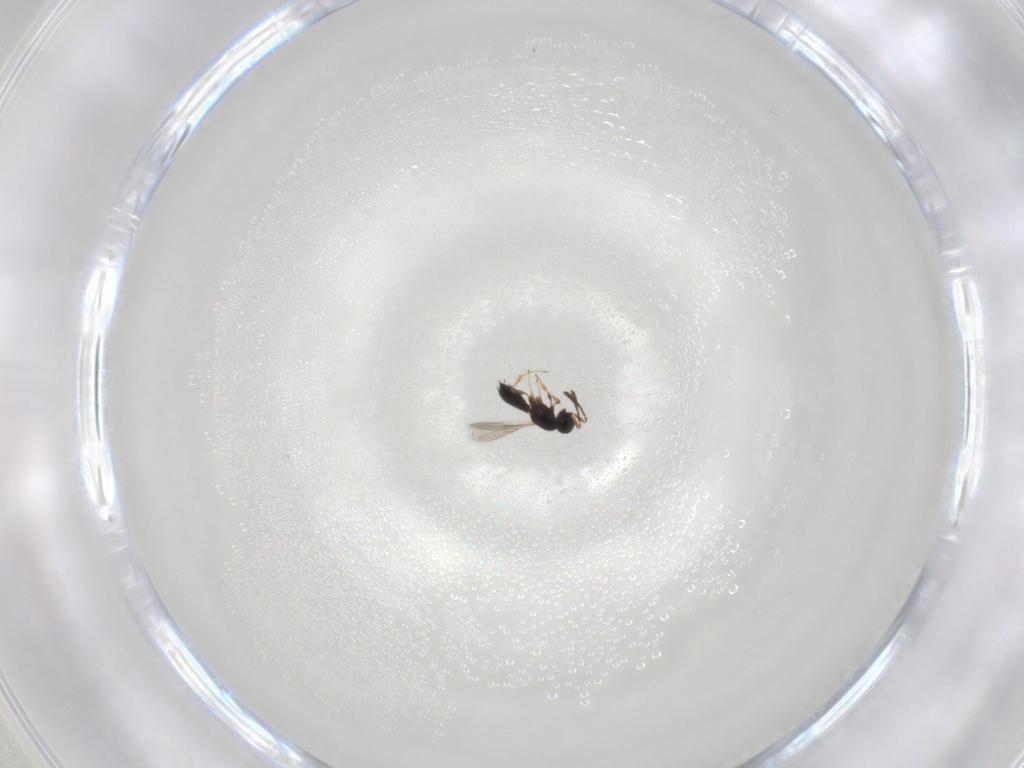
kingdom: Animalia
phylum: Arthropoda
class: Insecta
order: Hymenoptera
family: Scelionidae
